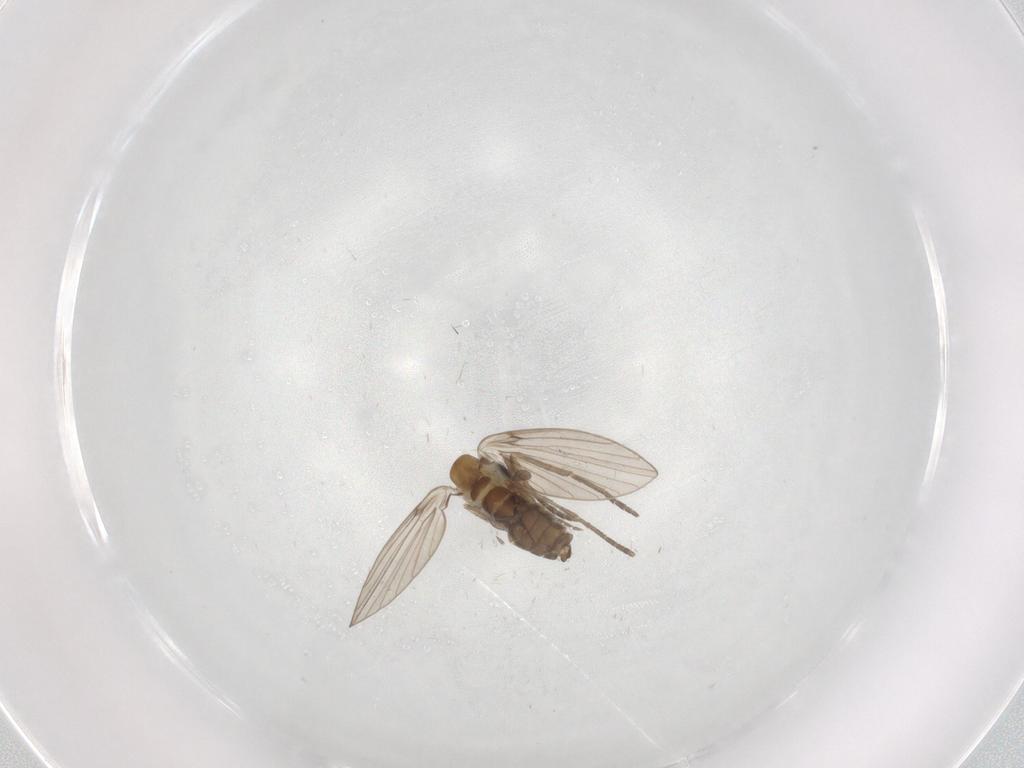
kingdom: Animalia
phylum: Arthropoda
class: Insecta
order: Diptera
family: Psychodidae
